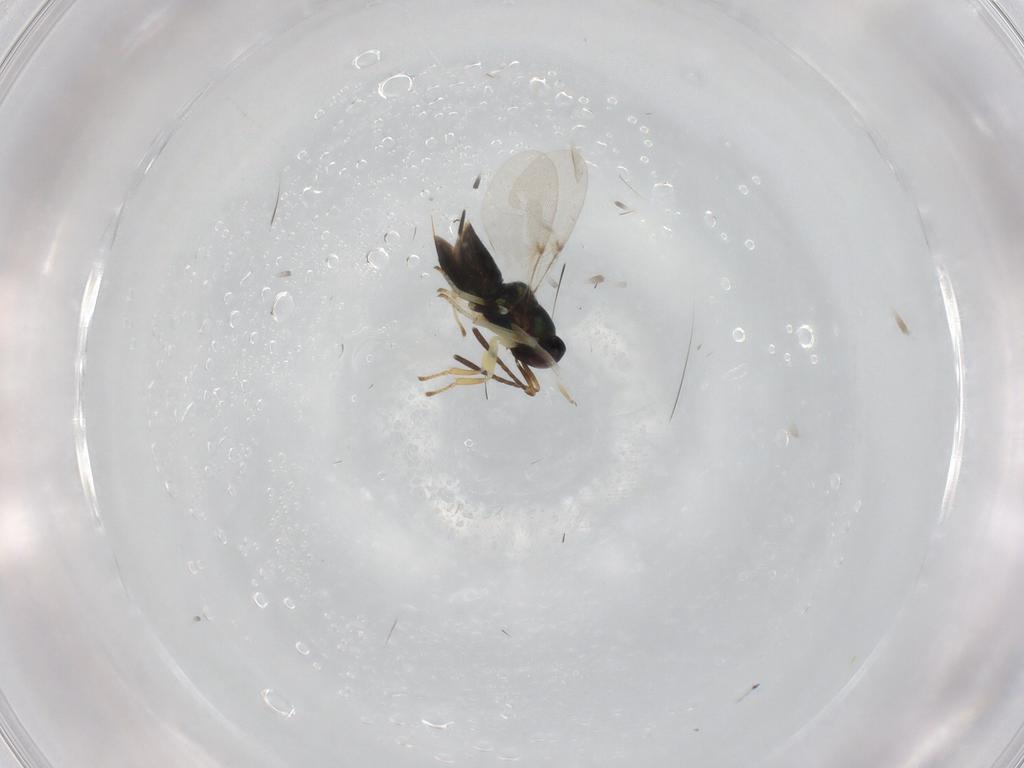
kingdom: Animalia
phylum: Arthropoda
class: Insecta
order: Hymenoptera
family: Encyrtidae
